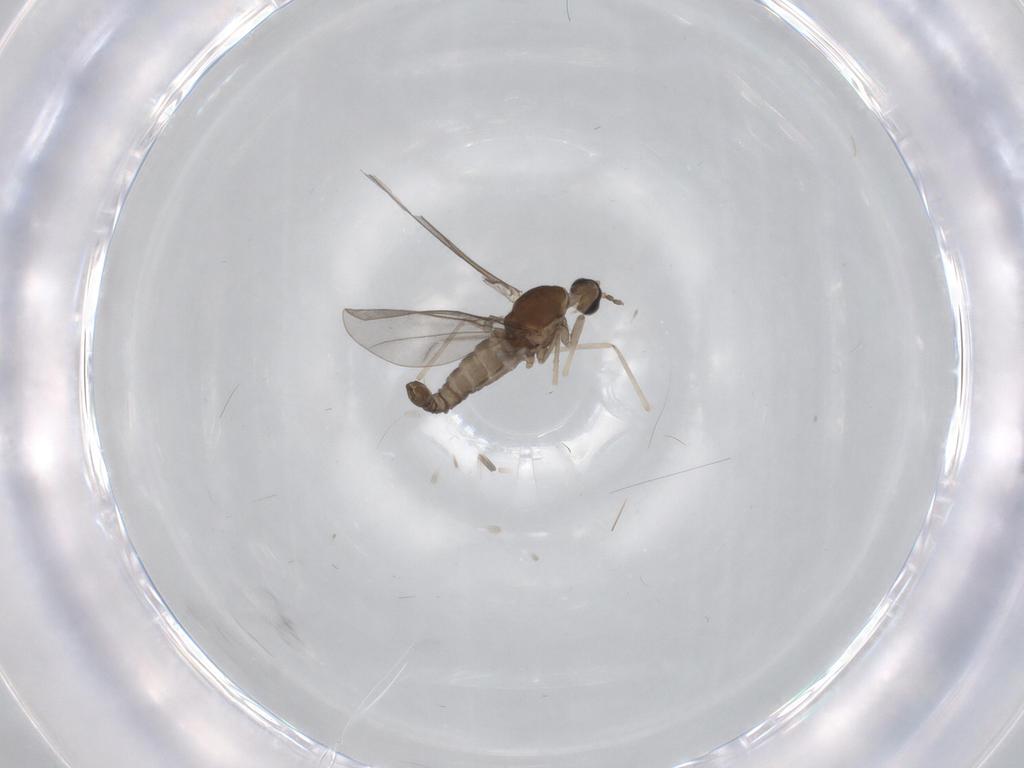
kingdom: Animalia
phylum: Arthropoda
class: Insecta
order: Diptera
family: Cecidomyiidae
